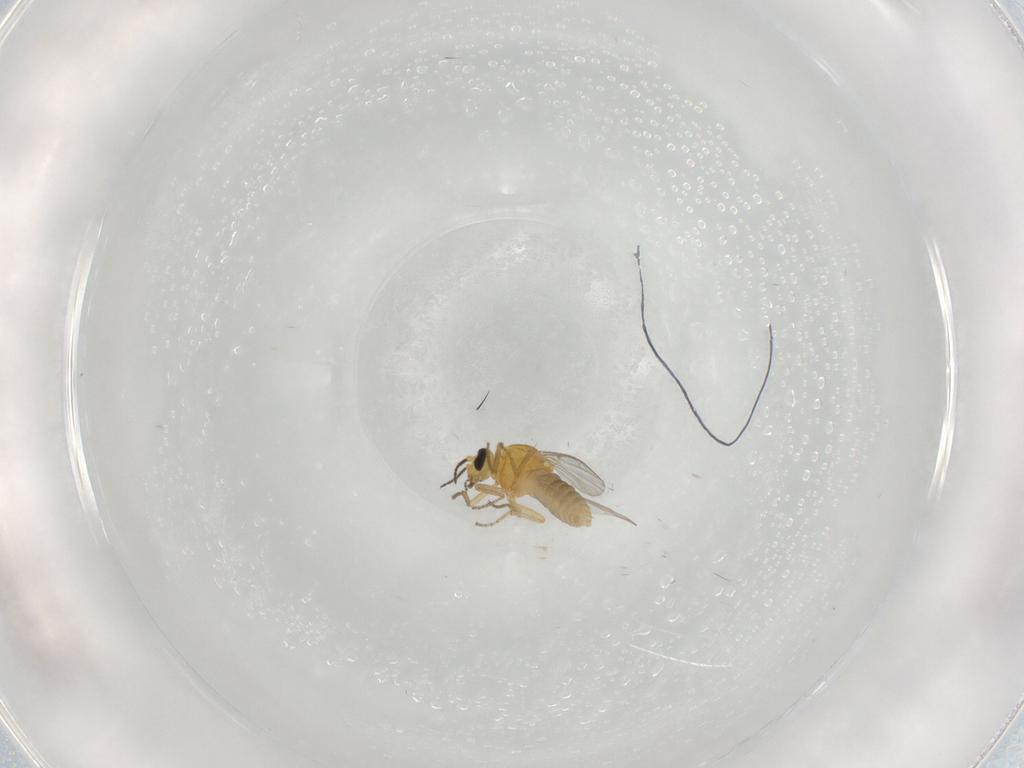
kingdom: Animalia
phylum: Arthropoda
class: Insecta
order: Diptera
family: Ceratopogonidae
